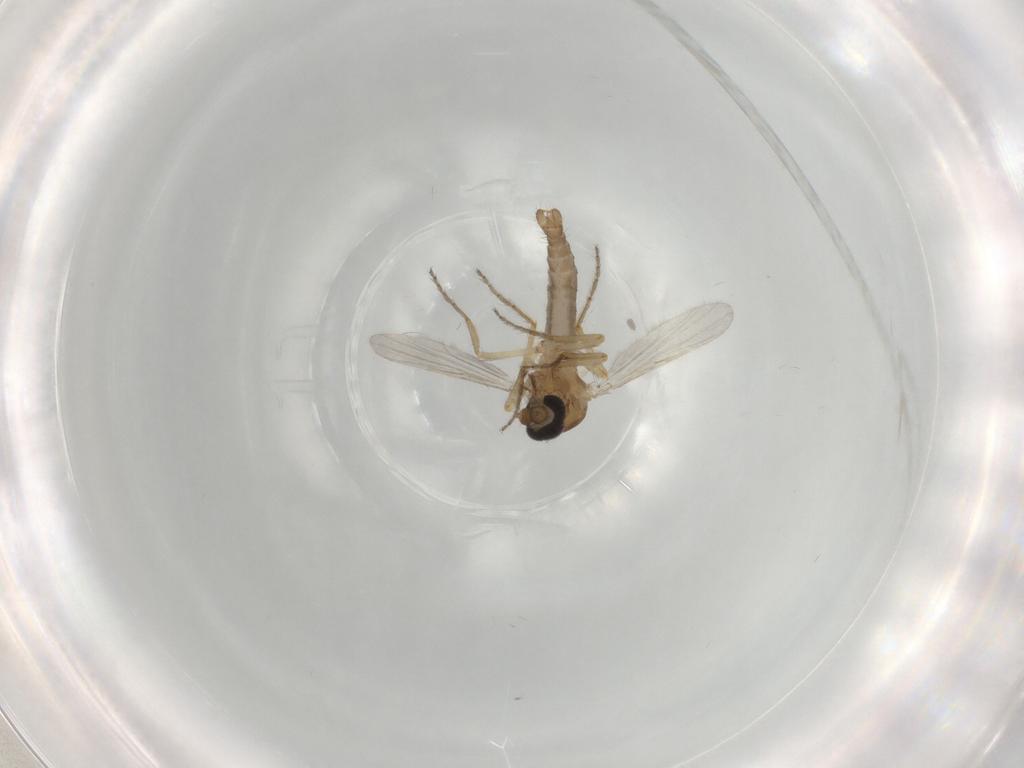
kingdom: Animalia
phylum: Arthropoda
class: Insecta
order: Diptera
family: Ceratopogonidae
